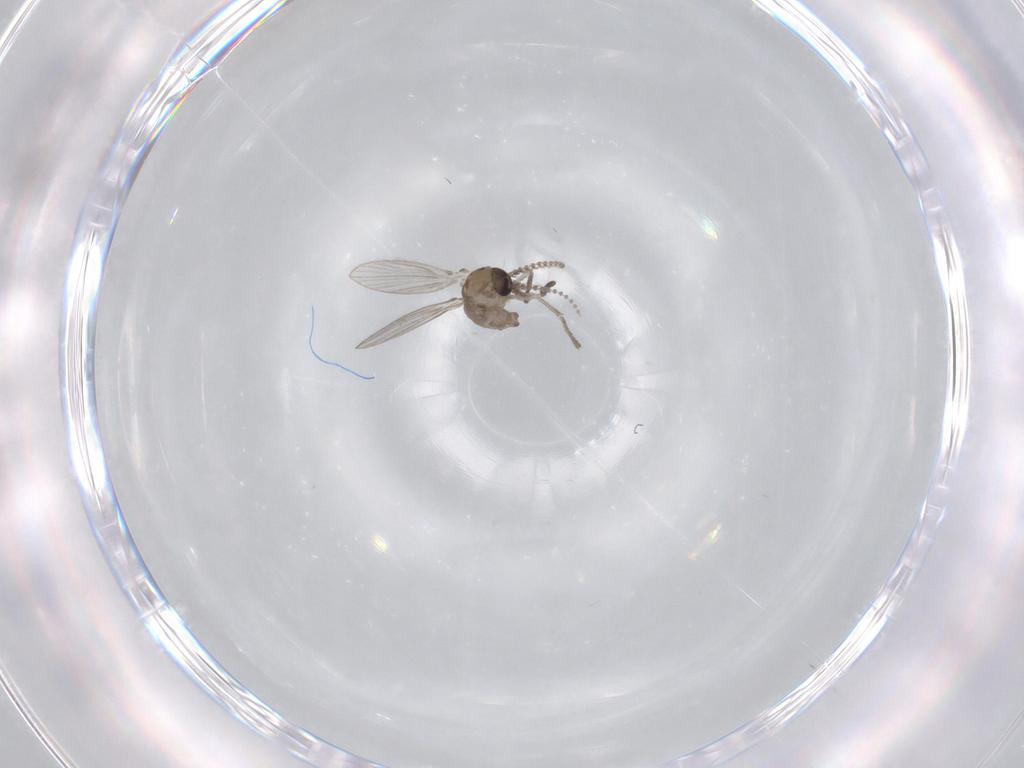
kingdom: Animalia
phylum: Arthropoda
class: Insecta
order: Diptera
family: Psychodidae
